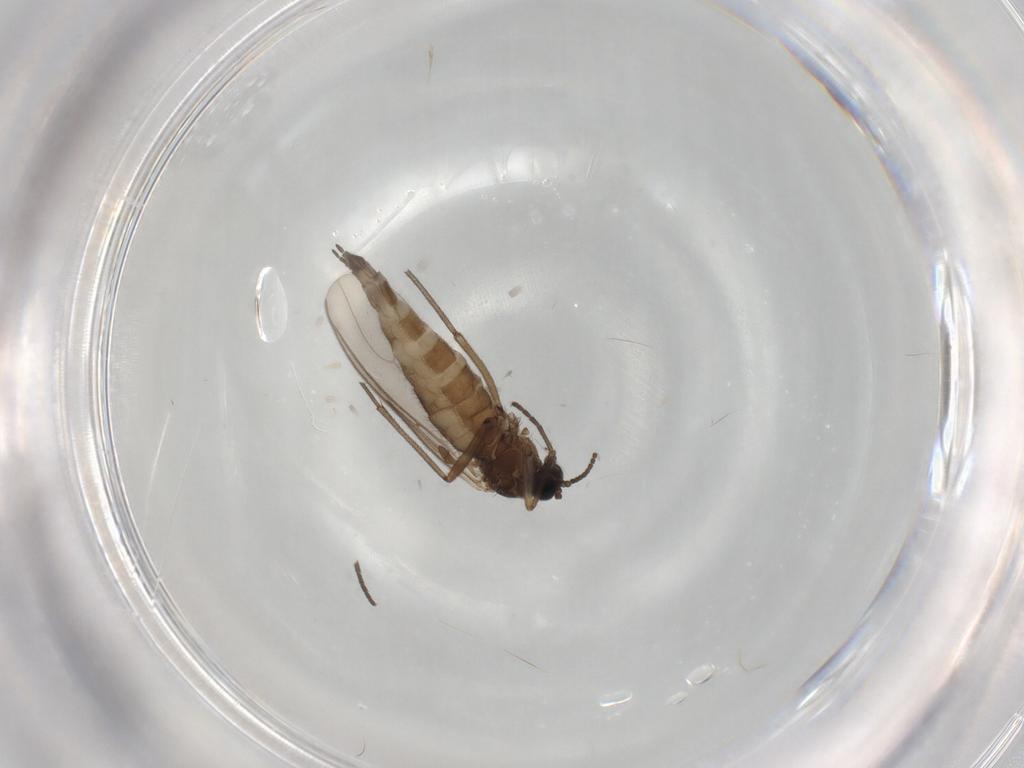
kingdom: Animalia
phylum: Arthropoda
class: Insecta
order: Diptera
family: Sciaridae
